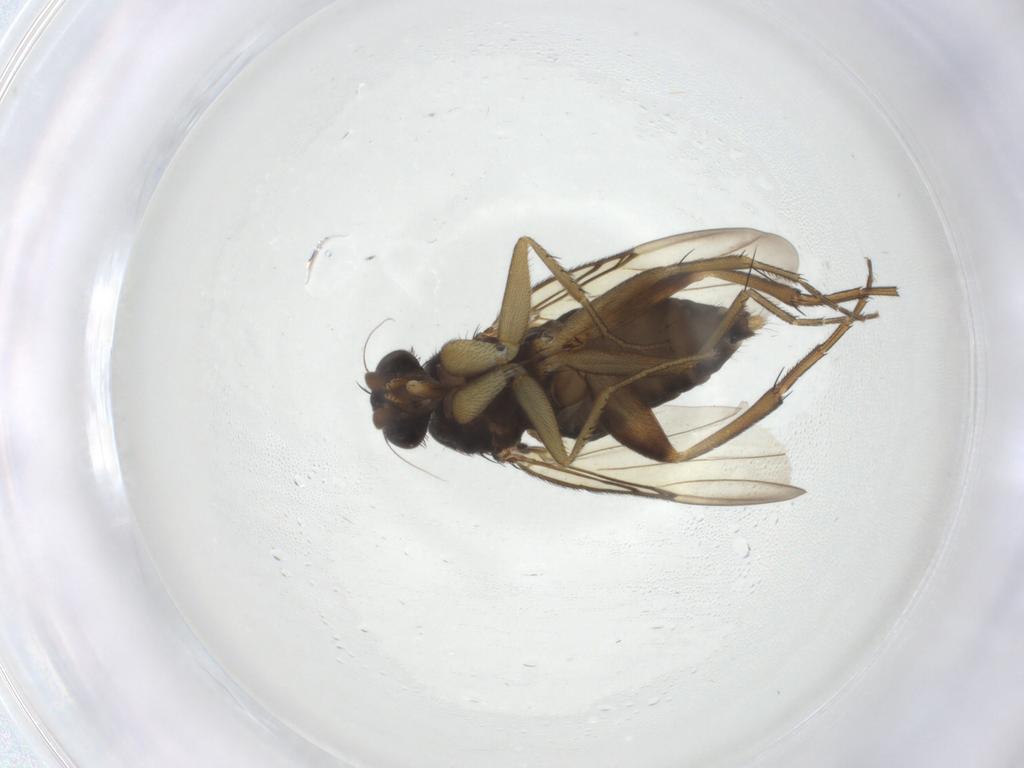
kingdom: Animalia
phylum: Arthropoda
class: Insecta
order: Diptera
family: Phoridae
